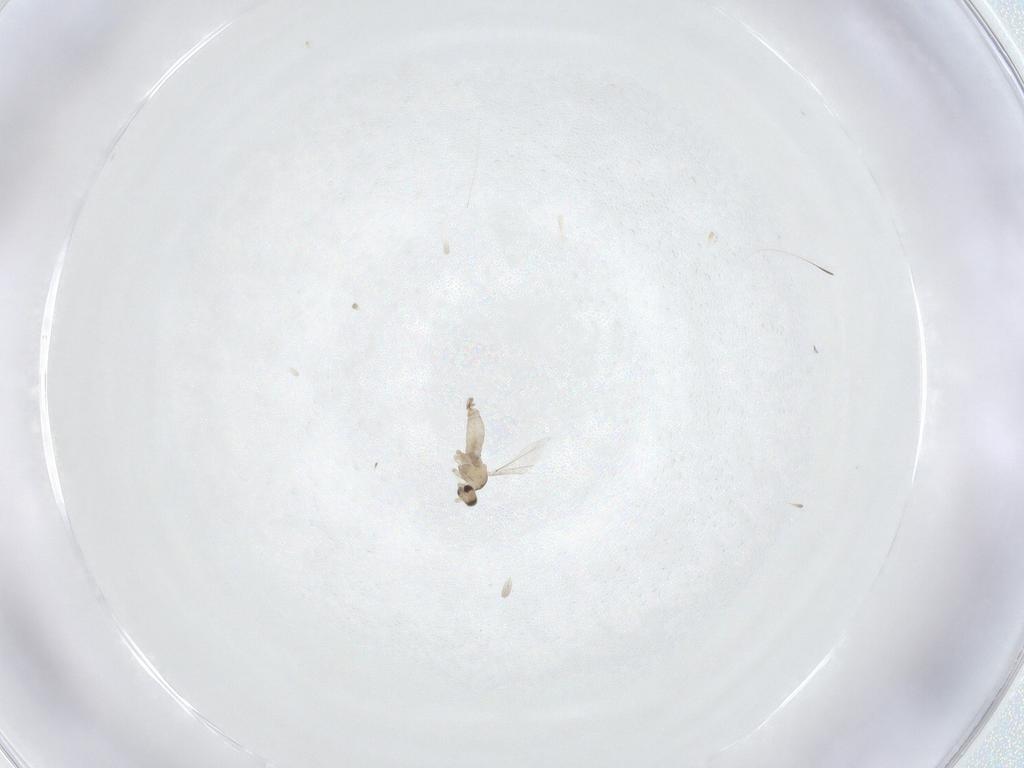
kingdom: Animalia
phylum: Arthropoda
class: Insecta
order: Diptera
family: Cecidomyiidae
